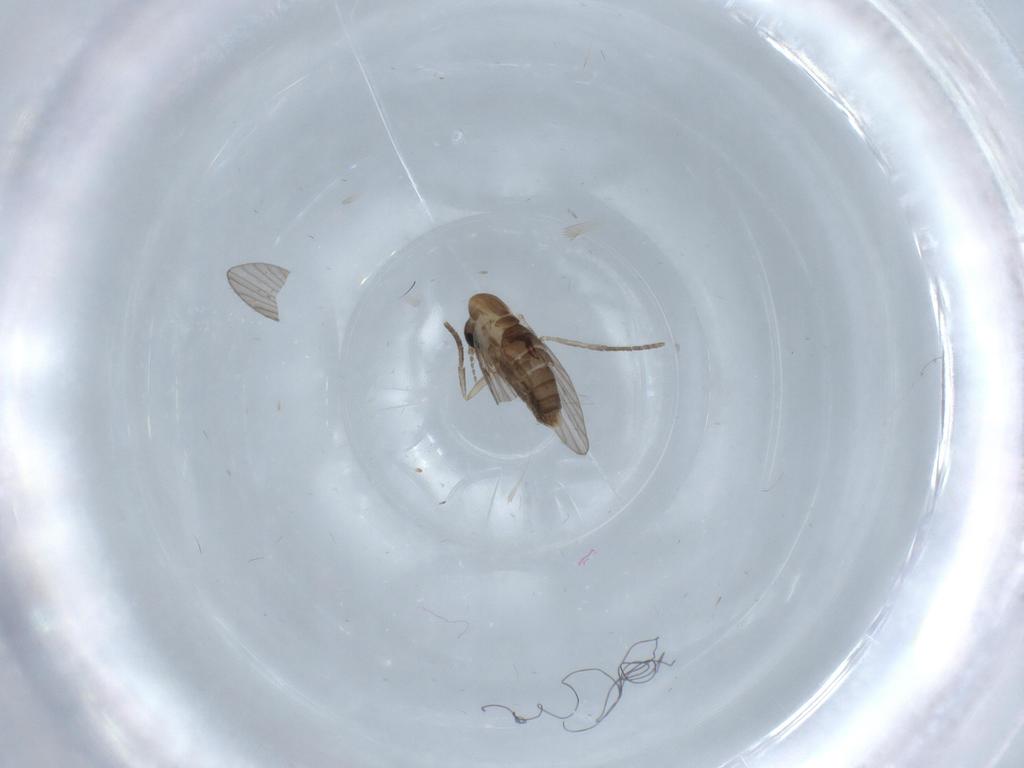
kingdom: Animalia
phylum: Arthropoda
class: Insecta
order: Diptera
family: Psychodidae
